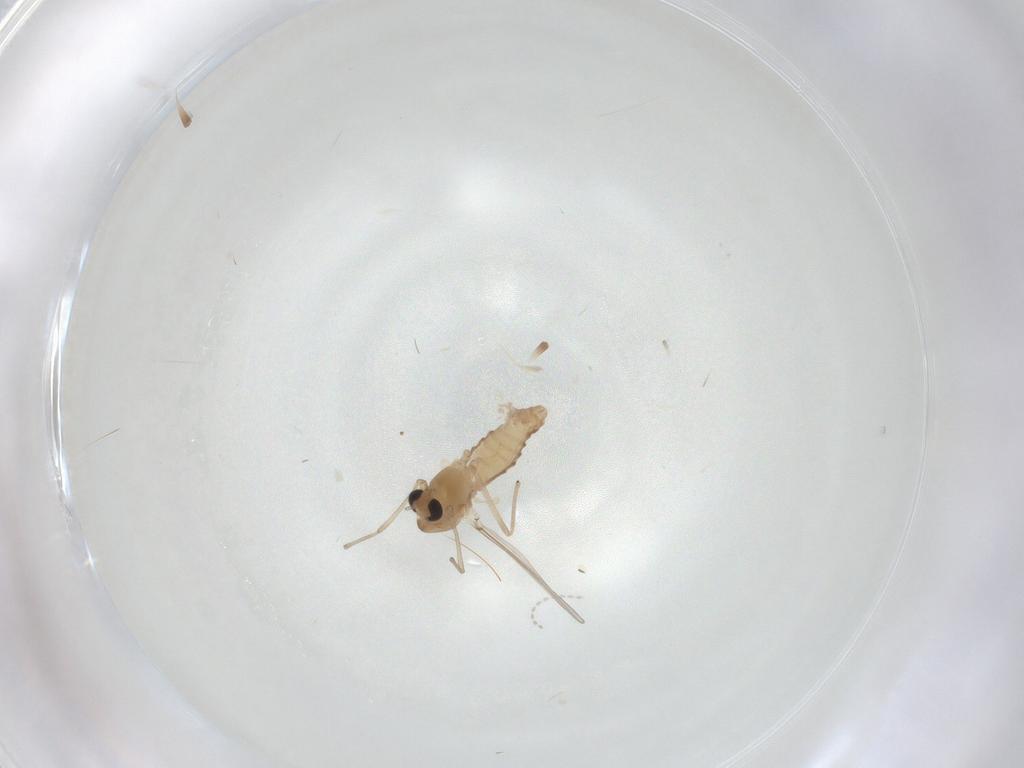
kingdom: Animalia
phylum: Arthropoda
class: Insecta
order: Diptera
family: Chironomidae
